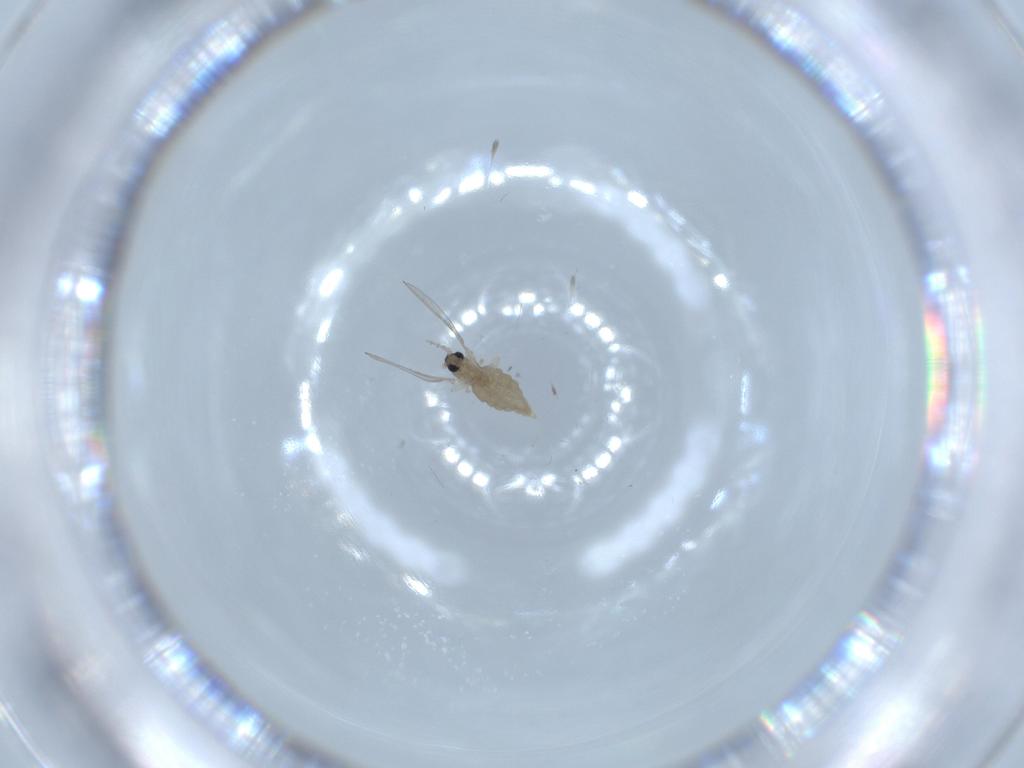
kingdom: Animalia
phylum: Arthropoda
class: Insecta
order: Diptera
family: Cecidomyiidae
